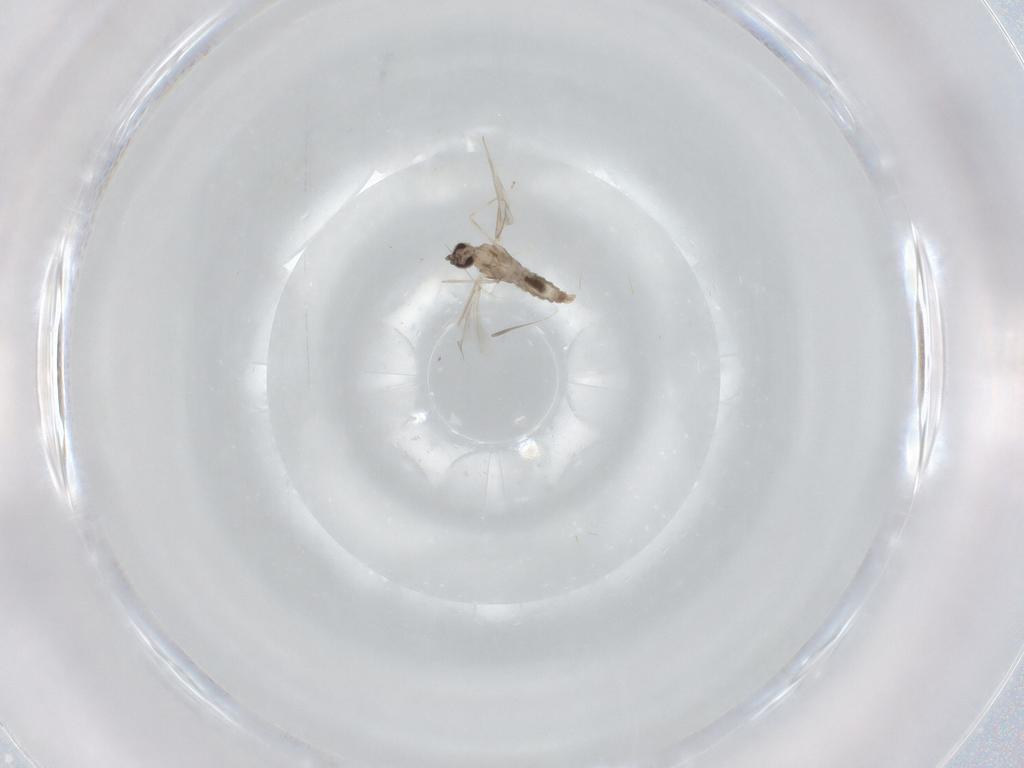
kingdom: Animalia
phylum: Arthropoda
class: Insecta
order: Diptera
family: Cecidomyiidae
